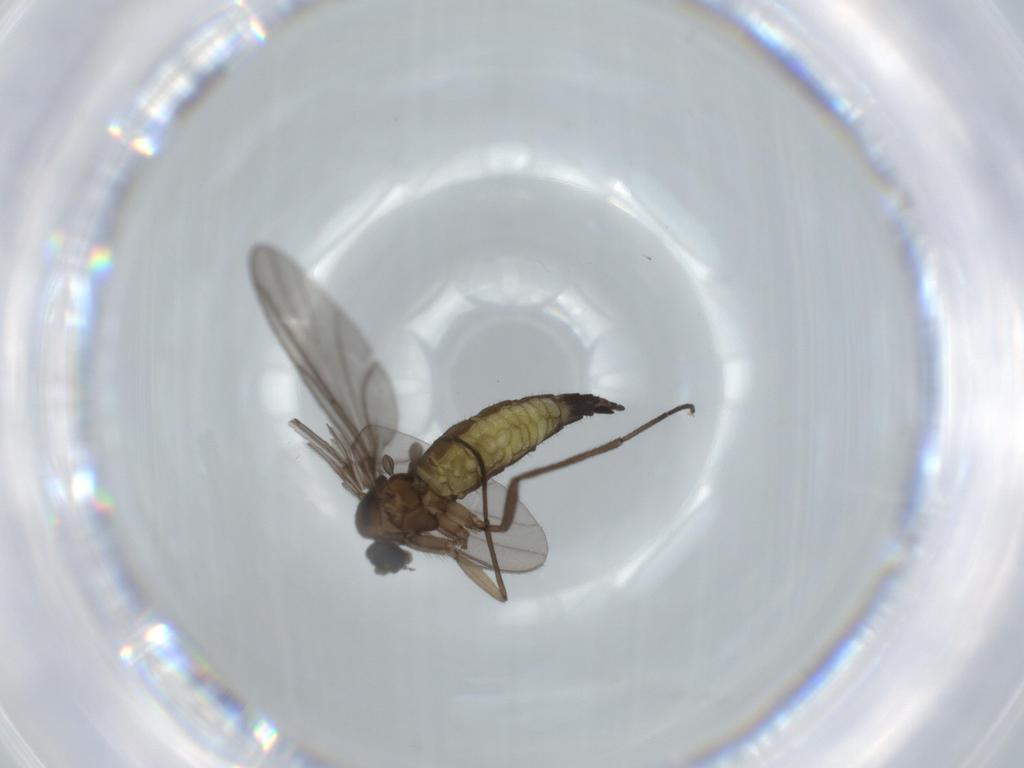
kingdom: Animalia
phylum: Arthropoda
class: Insecta
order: Diptera
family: Sciaridae
